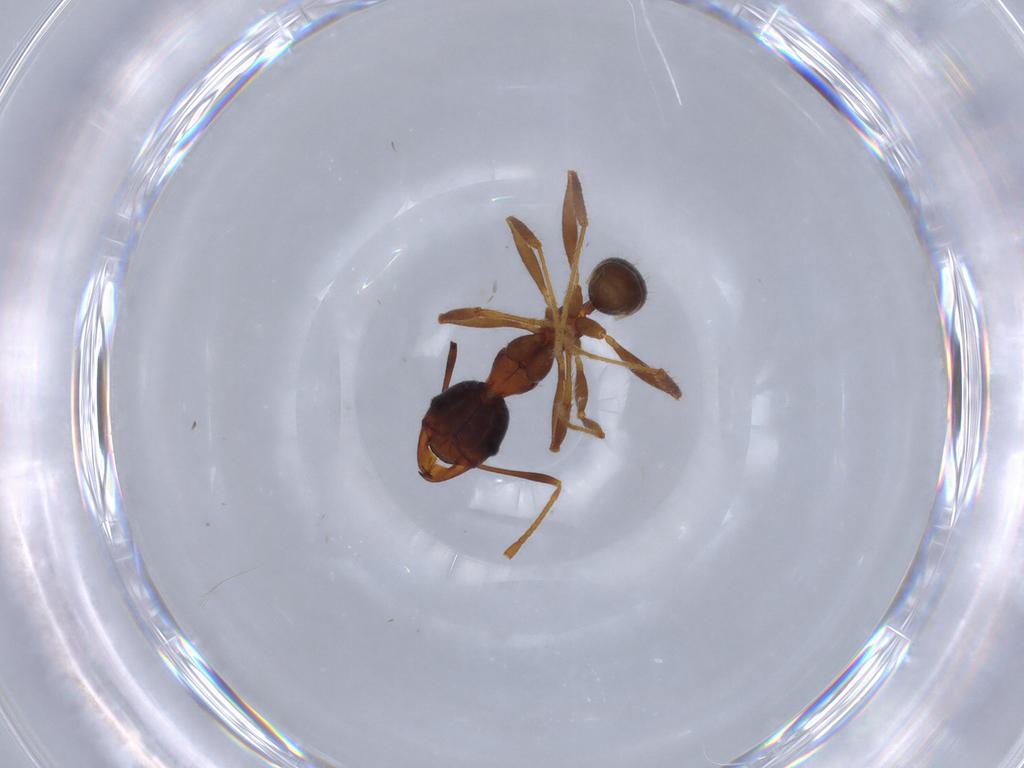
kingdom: Animalia
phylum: Arthropoda
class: Insecta
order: Hymenoptera
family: Formicidae
